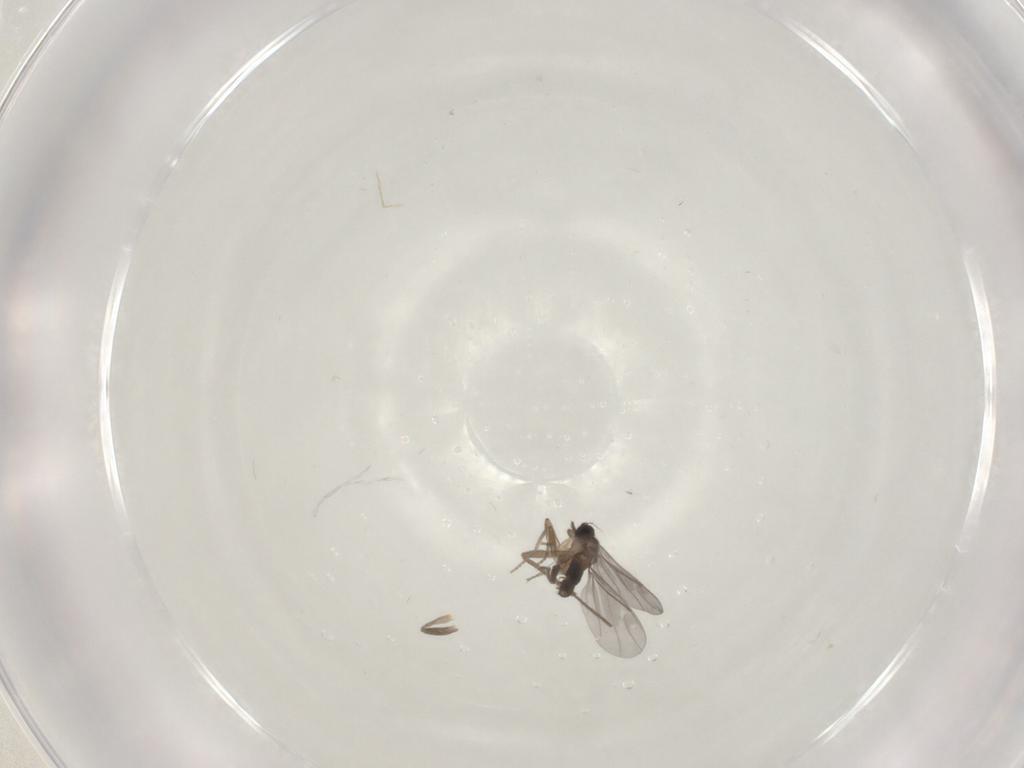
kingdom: Animalia
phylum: Arthropoda
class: Insecta
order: Diptera
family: Chironomidae
